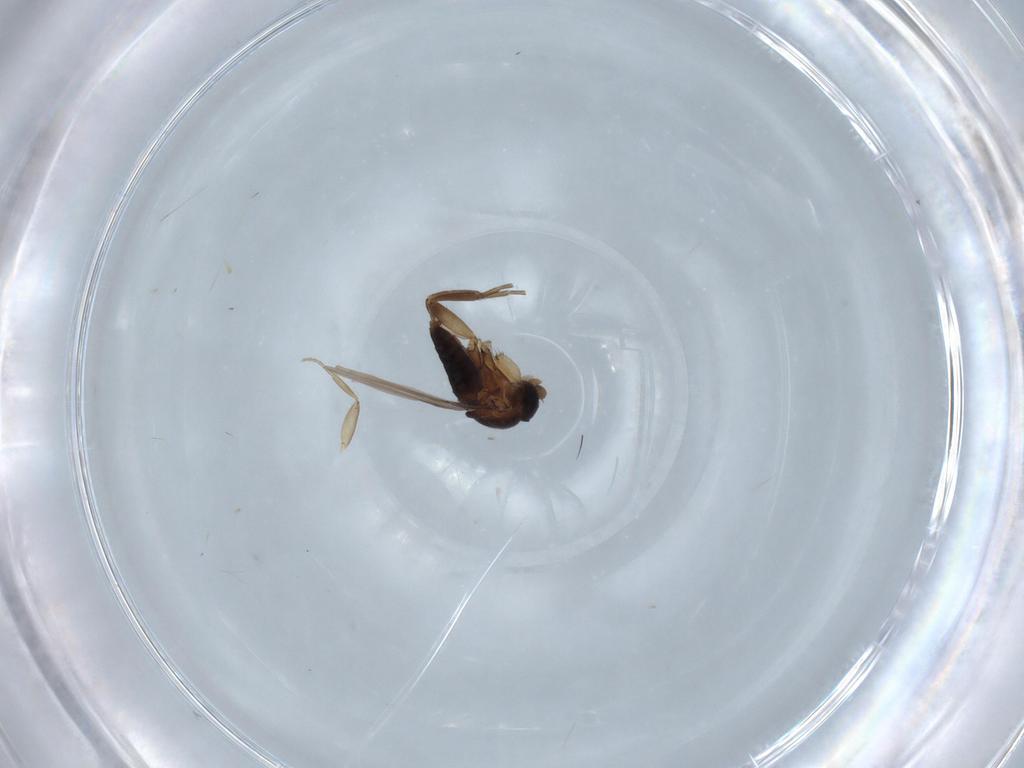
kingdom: Animalia
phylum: Arthropoda
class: Insecta
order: Diptera
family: Phoridae
